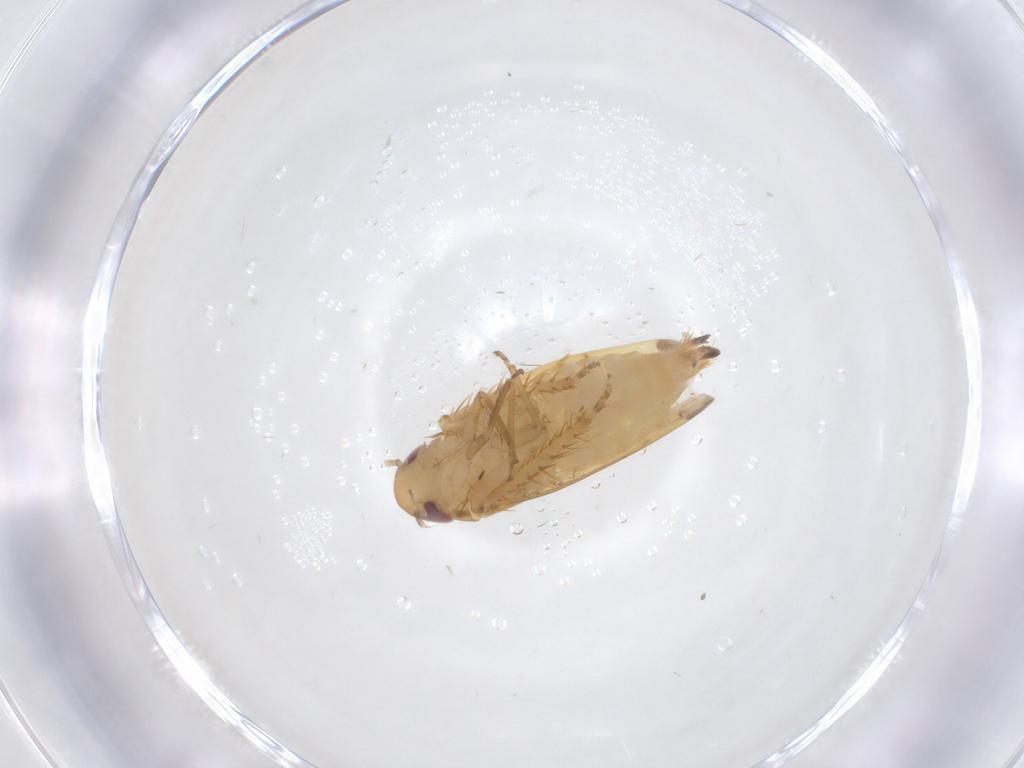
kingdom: Animalia
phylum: Arthropoda
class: Insecta
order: Hemiptera
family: Cicadellidae
